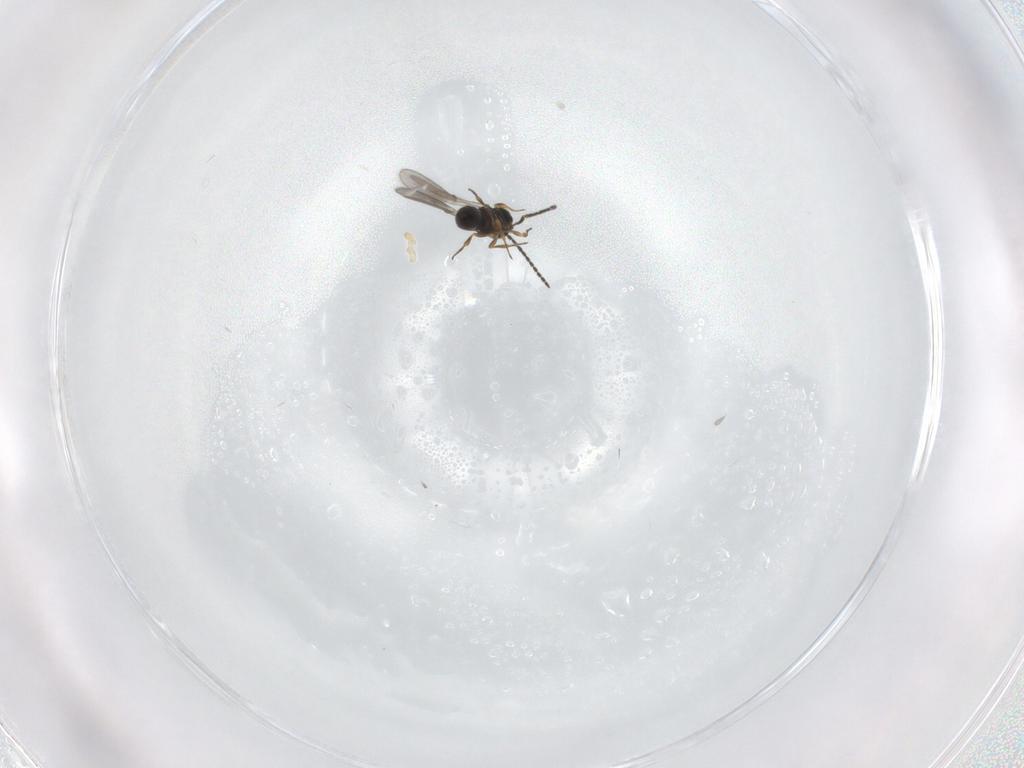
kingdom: Animalia
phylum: Arthropoda
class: Insecta
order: Hymenoptera
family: Scelionidae
